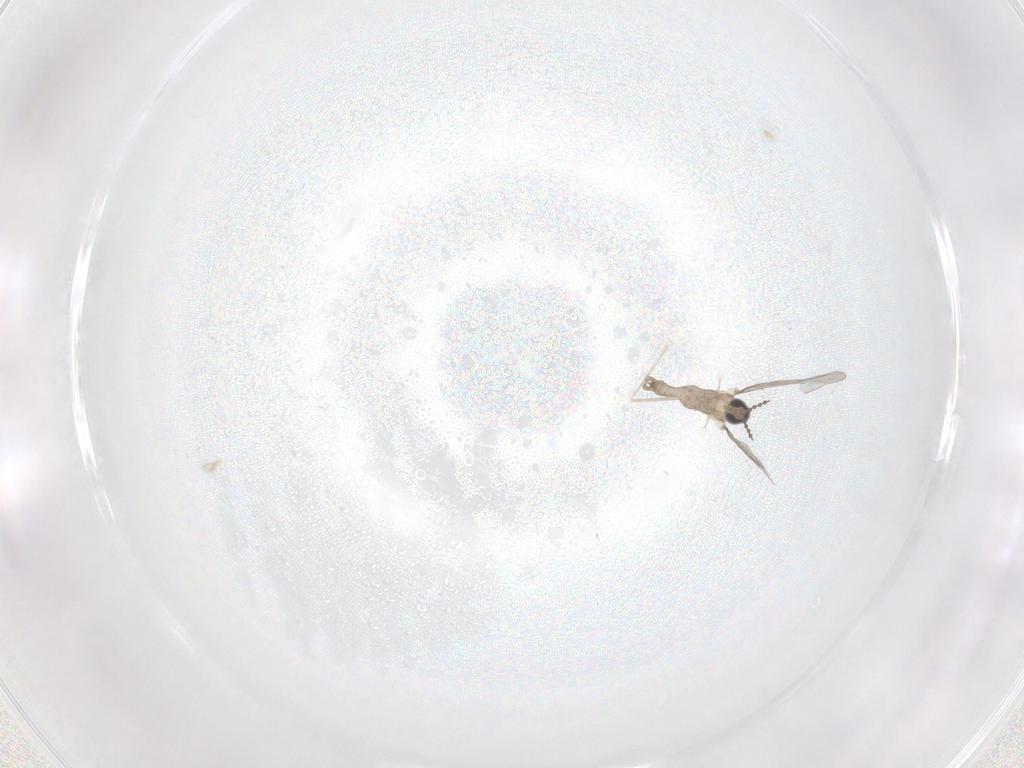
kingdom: Animalia
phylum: Arthropoda
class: Insecta
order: Diptera
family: Cecidomyiidae
